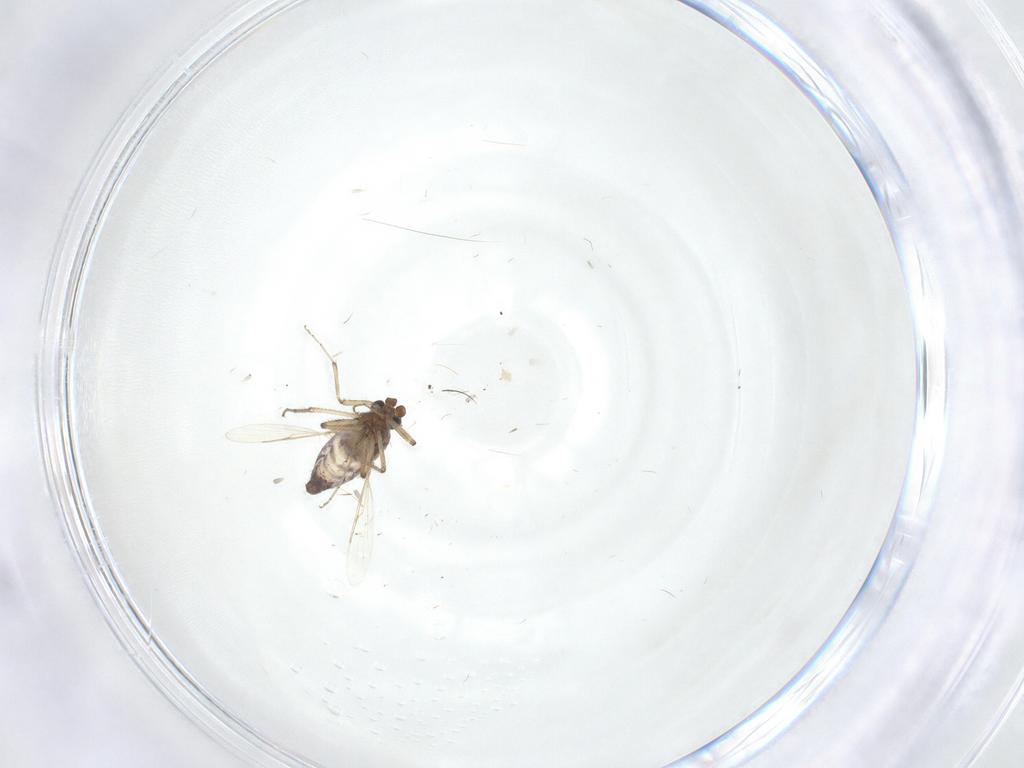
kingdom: Animalia
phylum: Arthropoda
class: Insecta
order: Diptera
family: Ceratopogonidae
